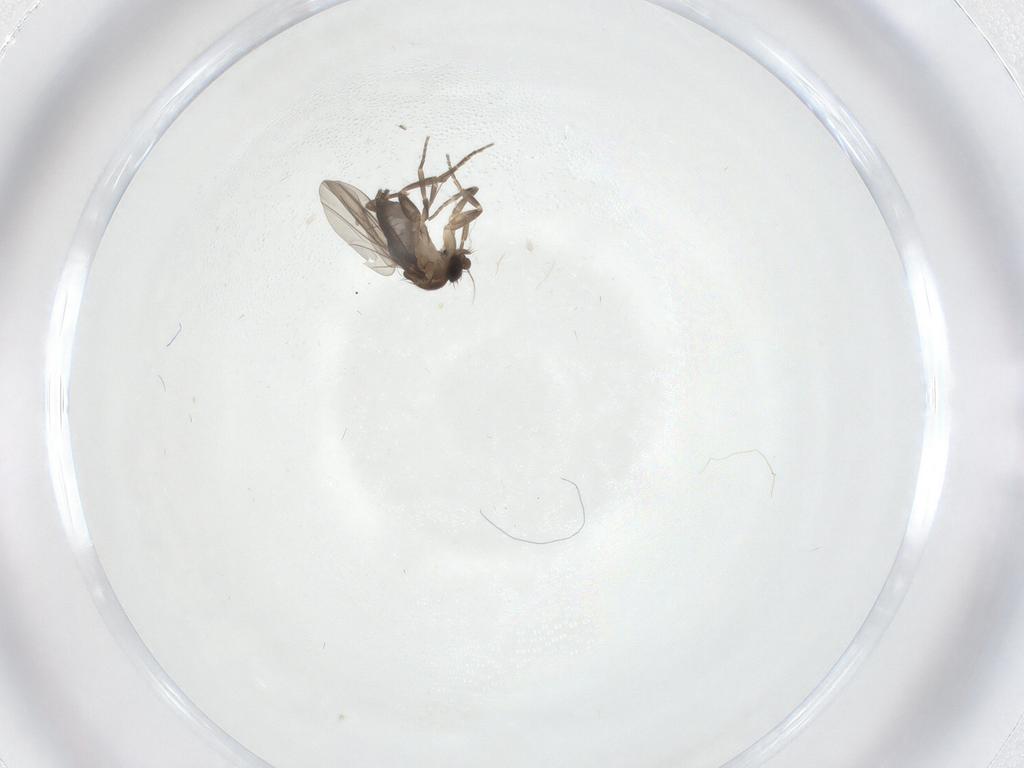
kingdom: Animalia
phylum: Arthropoda
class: Insecta
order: Diptera
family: Phoridae
